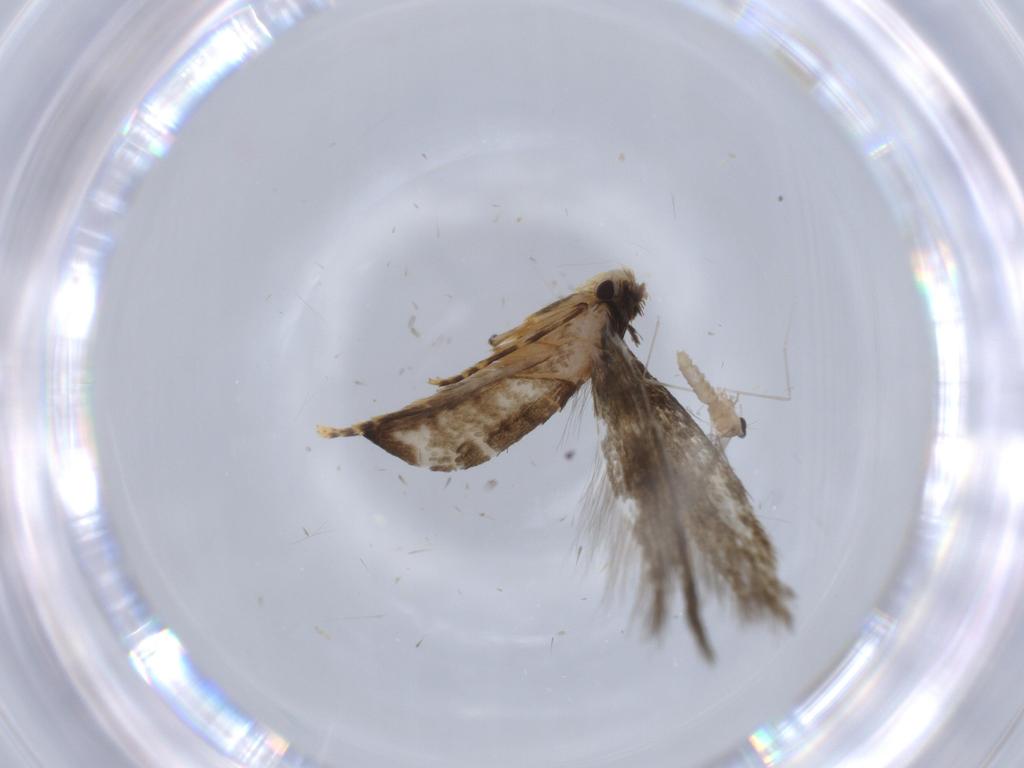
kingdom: Animalia
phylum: Arthropoda
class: Insecta
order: Lepidoptera
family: Tineidae
